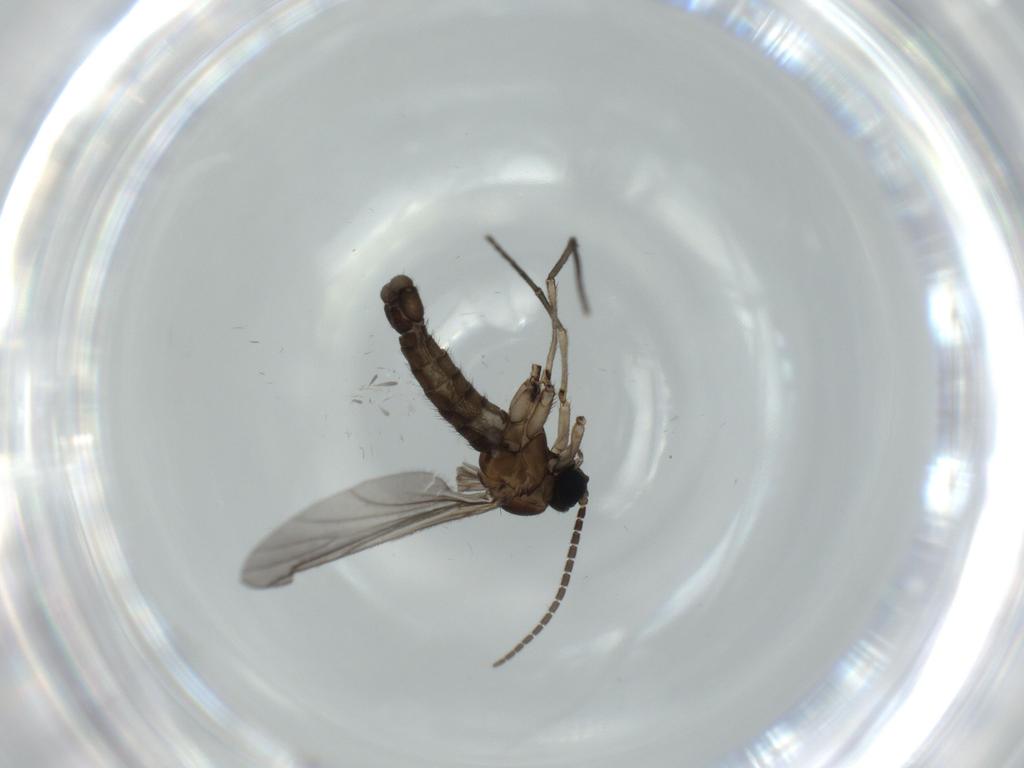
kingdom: Animalia
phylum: Arthropoda
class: Insecta
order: Diptera
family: Sciaridae
